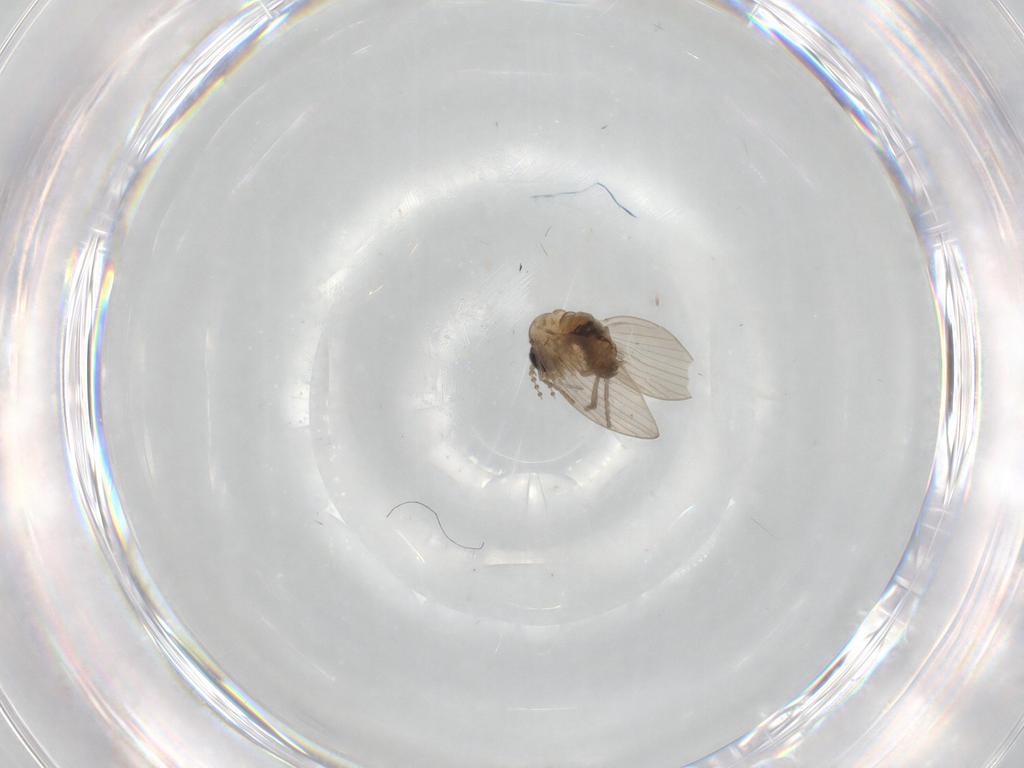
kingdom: Animalia
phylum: Arthropoda
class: Insecta
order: Diptera
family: Psychodidae
